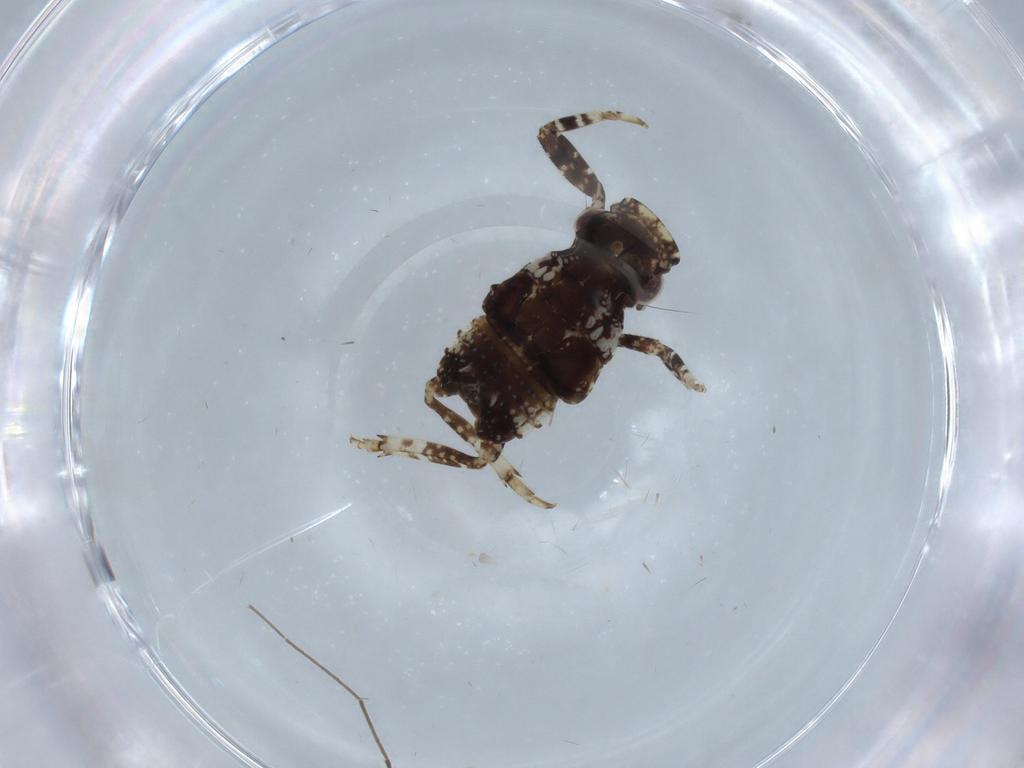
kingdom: Animalia
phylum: Arthropoda
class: Insecta
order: Hemiptera
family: Fulgoridae
